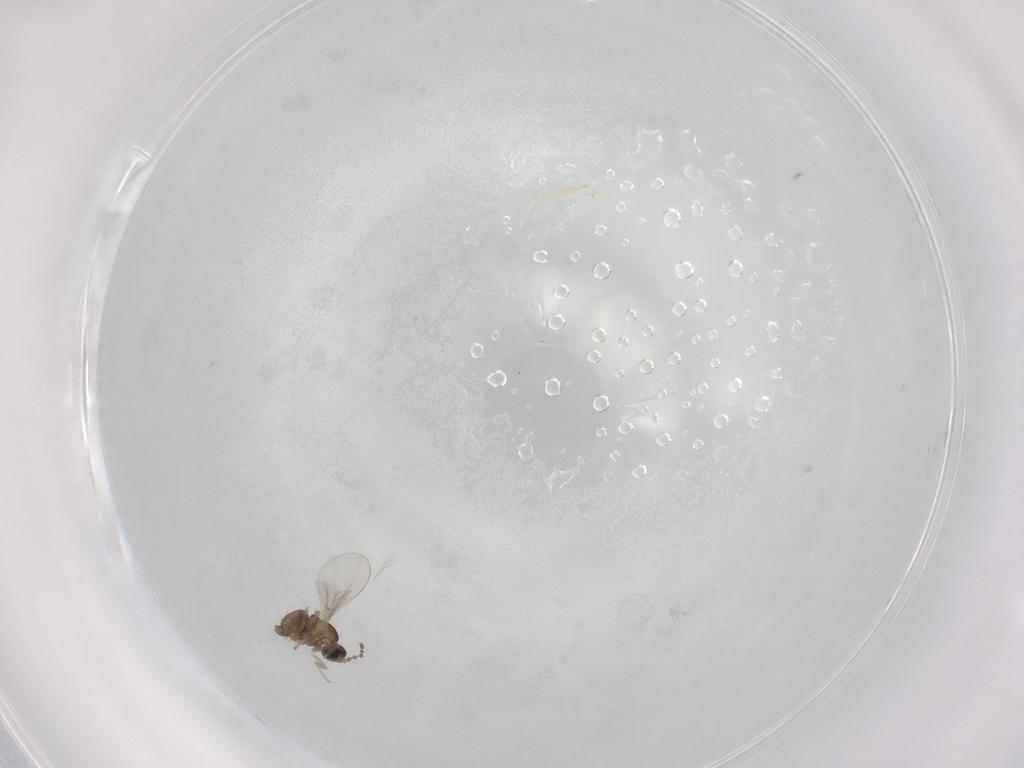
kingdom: Animalia
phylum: Arthropoda
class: Insecta
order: Diptera
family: Cecidomyiidae
